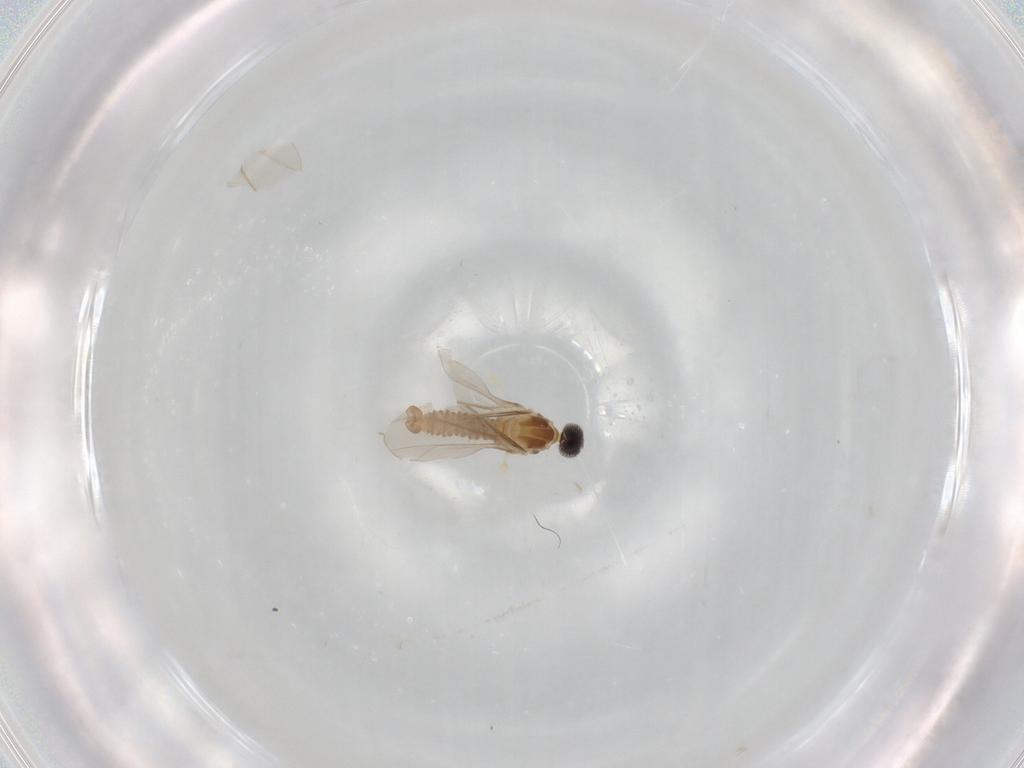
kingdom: Animalia
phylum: Arthropoda
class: Insecta
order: Diptera
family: Cecidomyiidae
